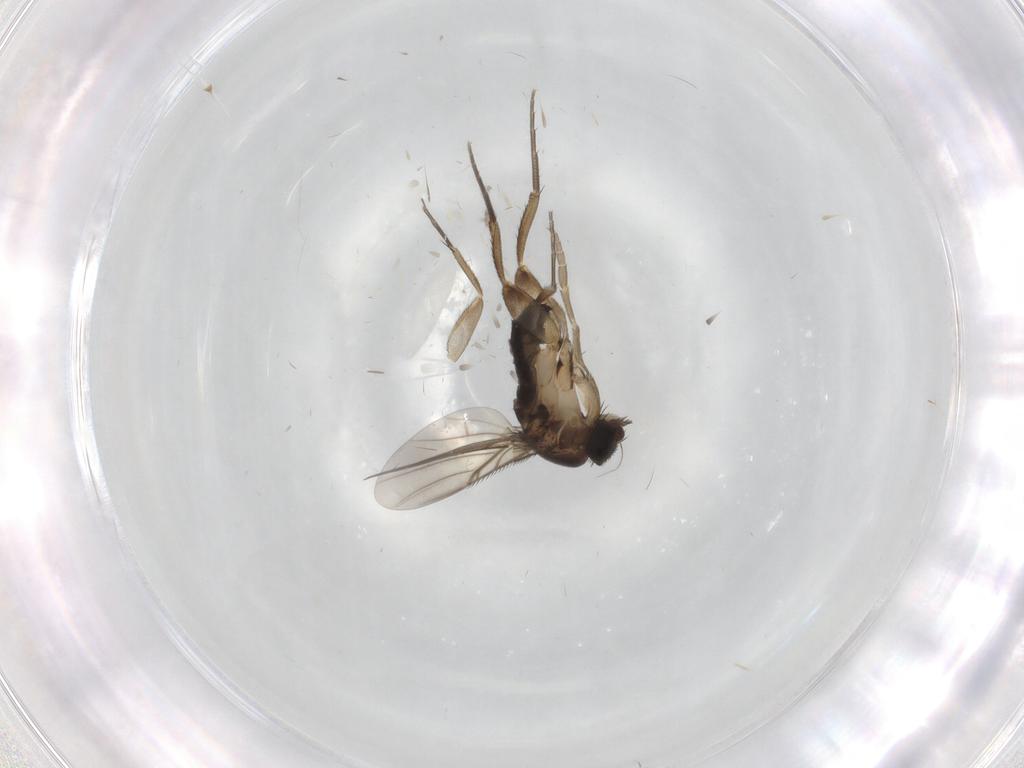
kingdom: Animalia
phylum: Arthropoda
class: Insecta
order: Diptera
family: Phoridae
